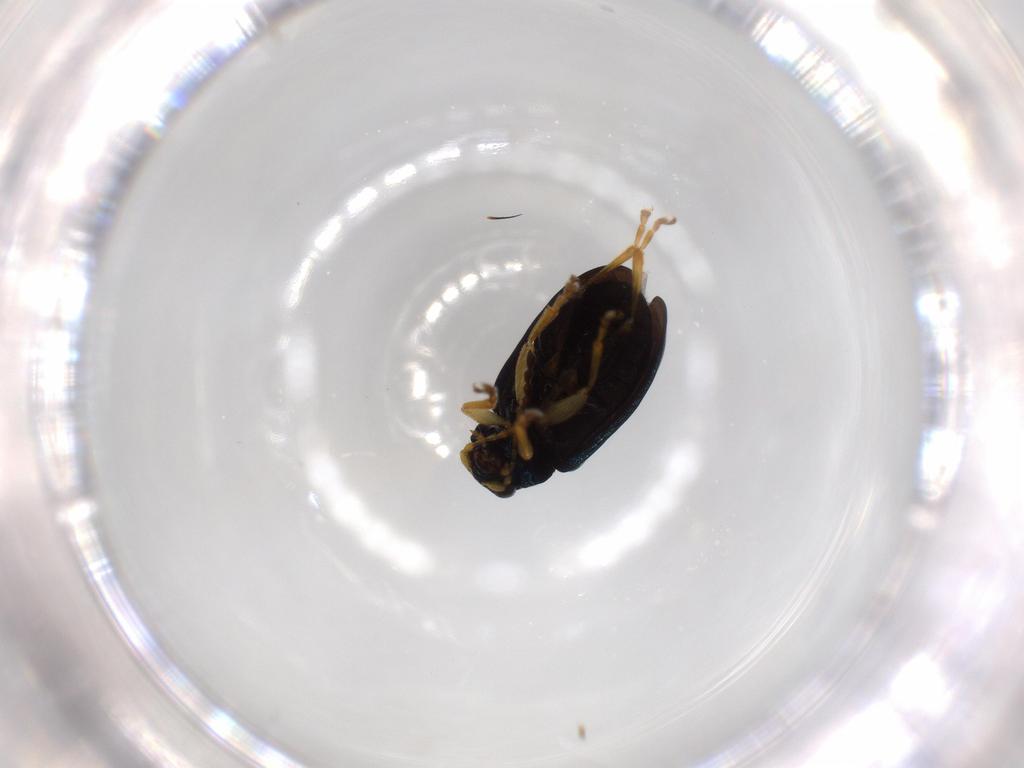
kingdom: Animalia
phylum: Arthropoda
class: Insecta
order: Coleoptera
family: Chrysomelidae
